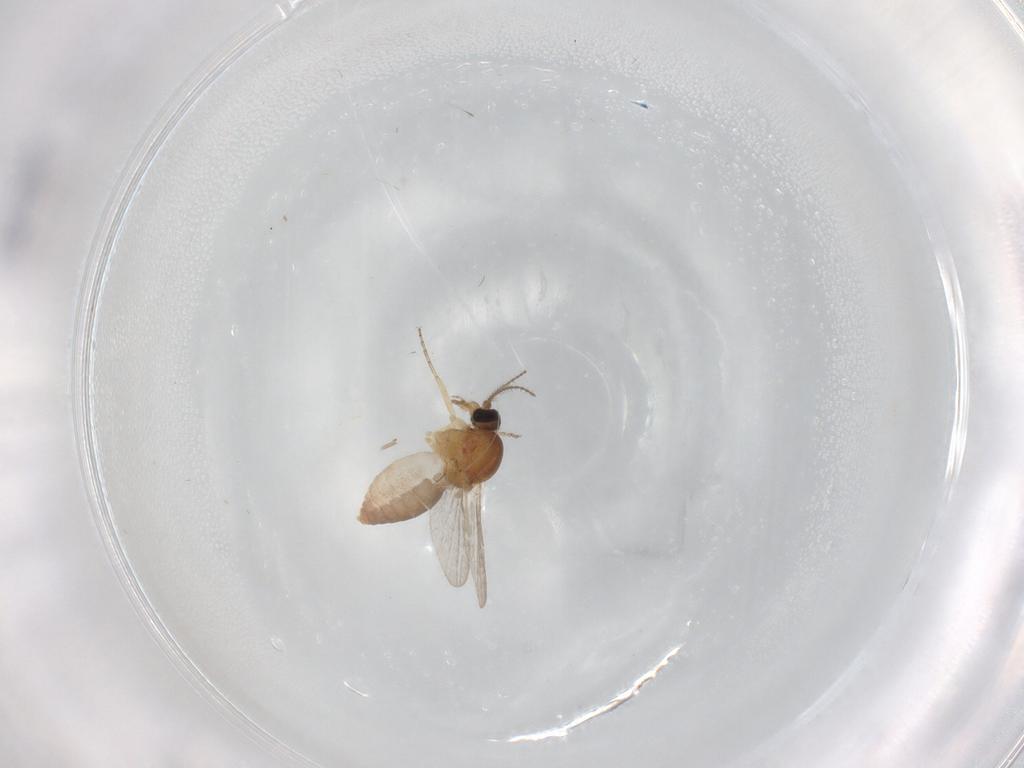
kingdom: Animalia
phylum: Arthropoda
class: Insecta
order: Diptera
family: Ceratopogonidae
